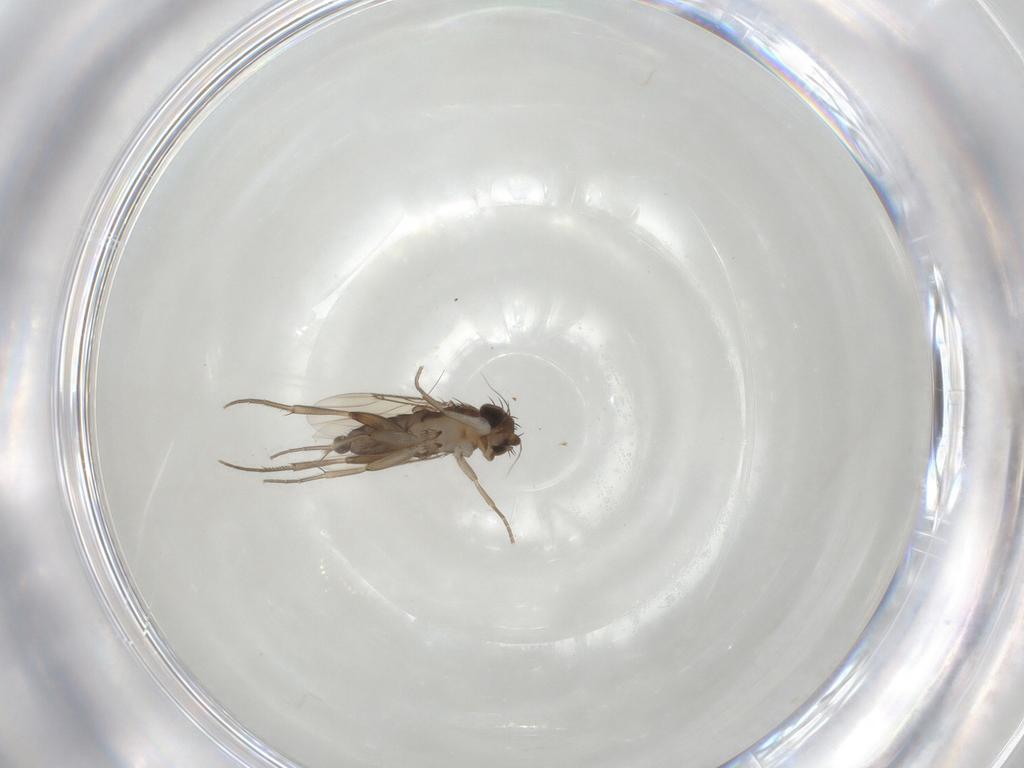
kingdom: Animalia
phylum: Arthropoda
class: Insecta
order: Diptera
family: Phoridae
